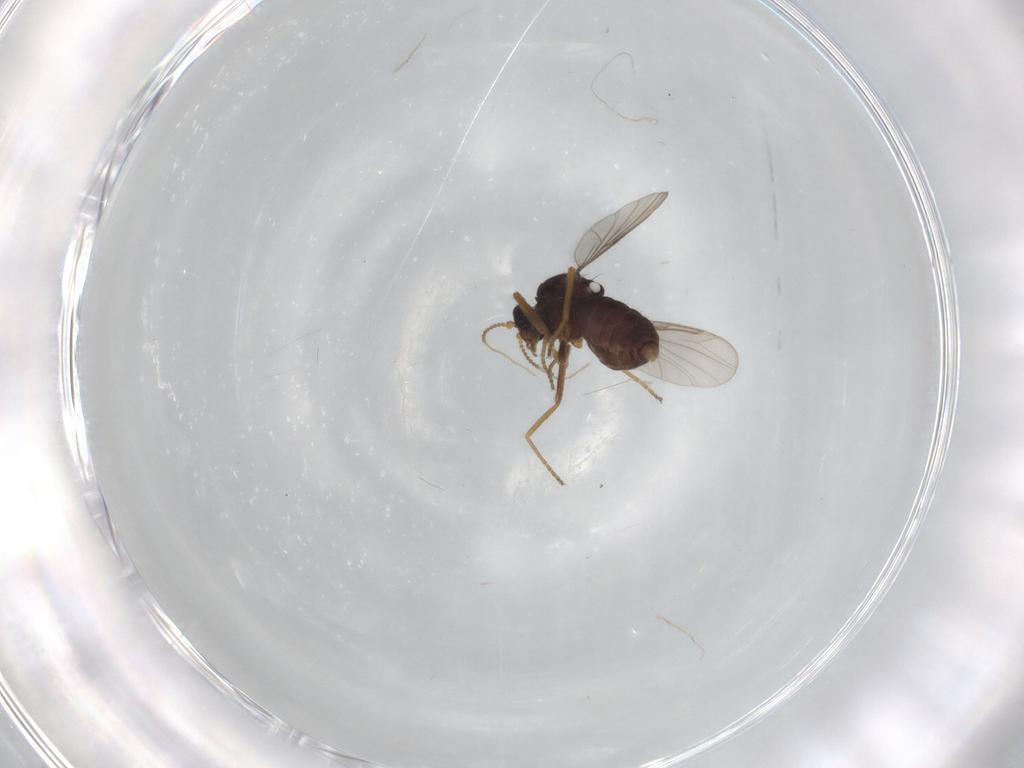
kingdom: Animalia
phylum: Arthropoda
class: Insecta
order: Diptera
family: Ceratopogonidae
